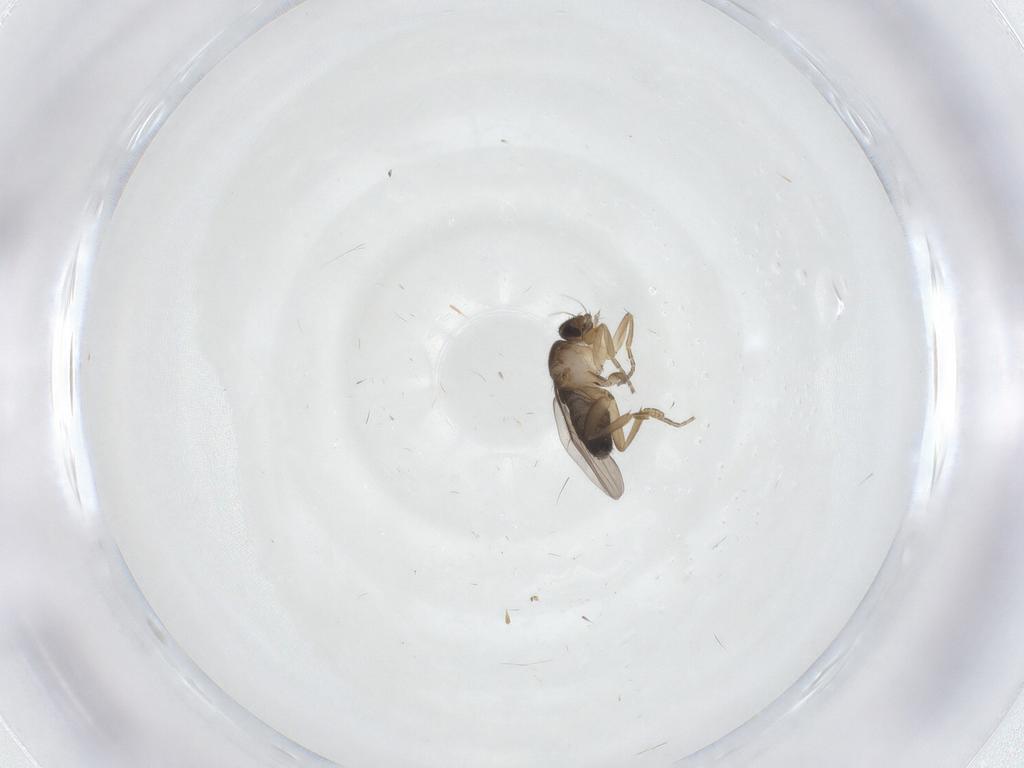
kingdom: Animalia
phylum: Arthropoda
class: Insecta
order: Diptera
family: Phoridae
